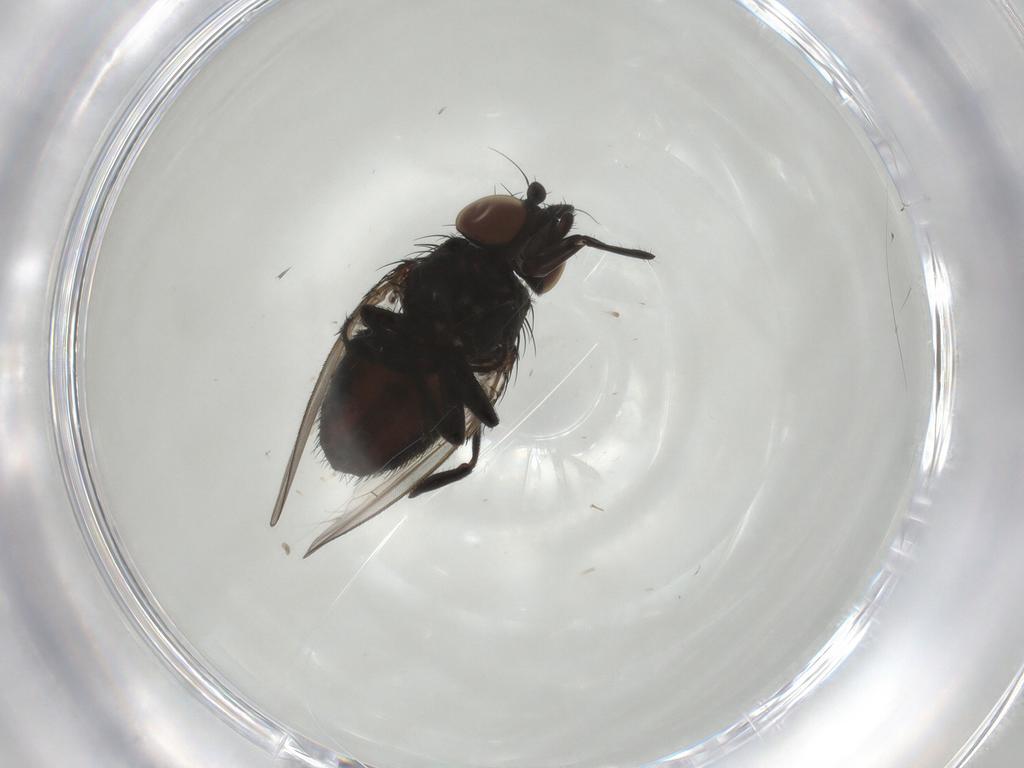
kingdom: Animalia
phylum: Arthropoda
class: Insecta
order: Diptera
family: Milichiidae
